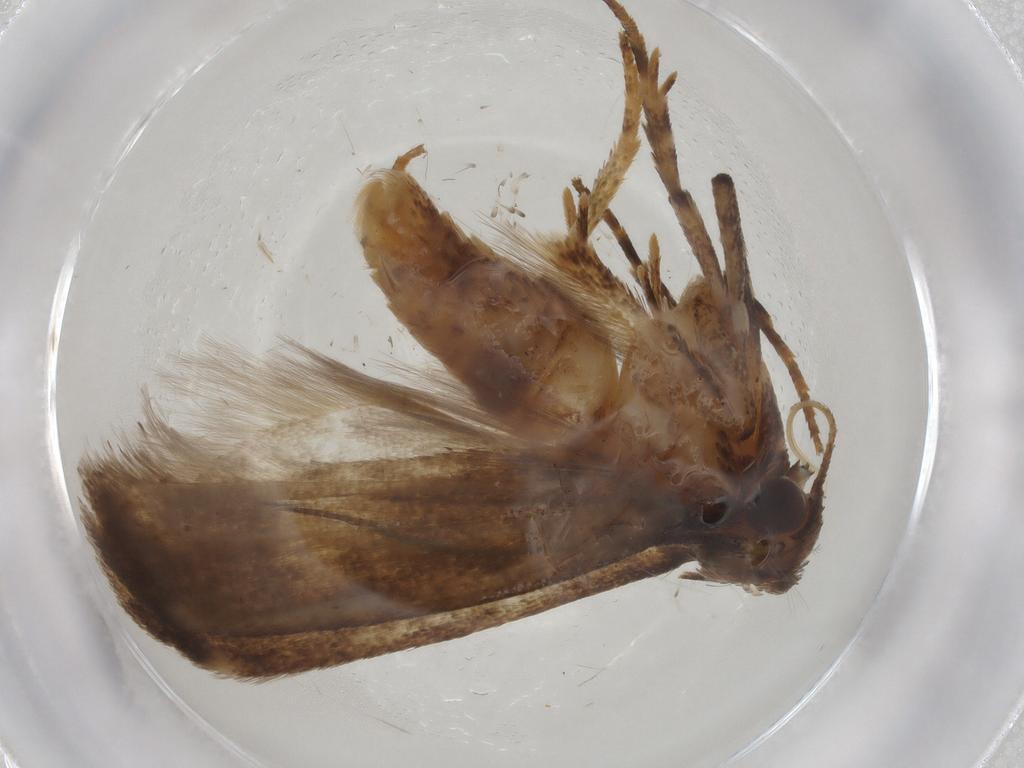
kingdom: Animalia
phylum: Arthropoda
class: Insecta
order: Lepidoptera
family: Gelechiidae
